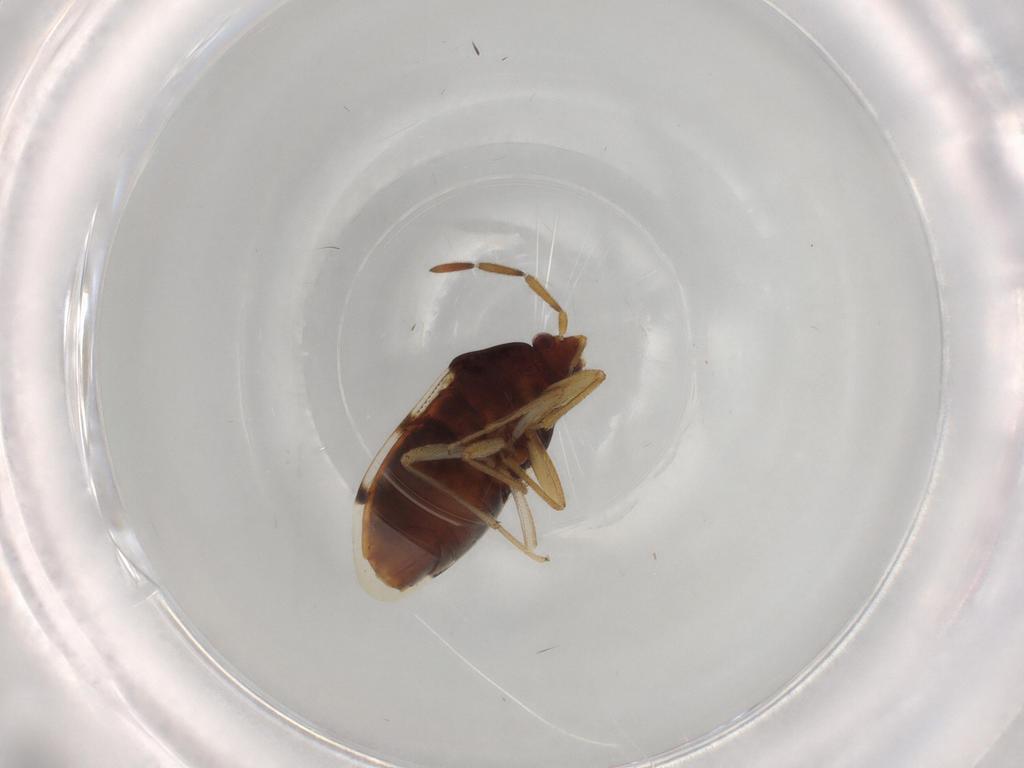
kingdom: Animalia
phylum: Arthropoda
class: Insecta
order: Hemiptera
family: Rhyparochromidae
